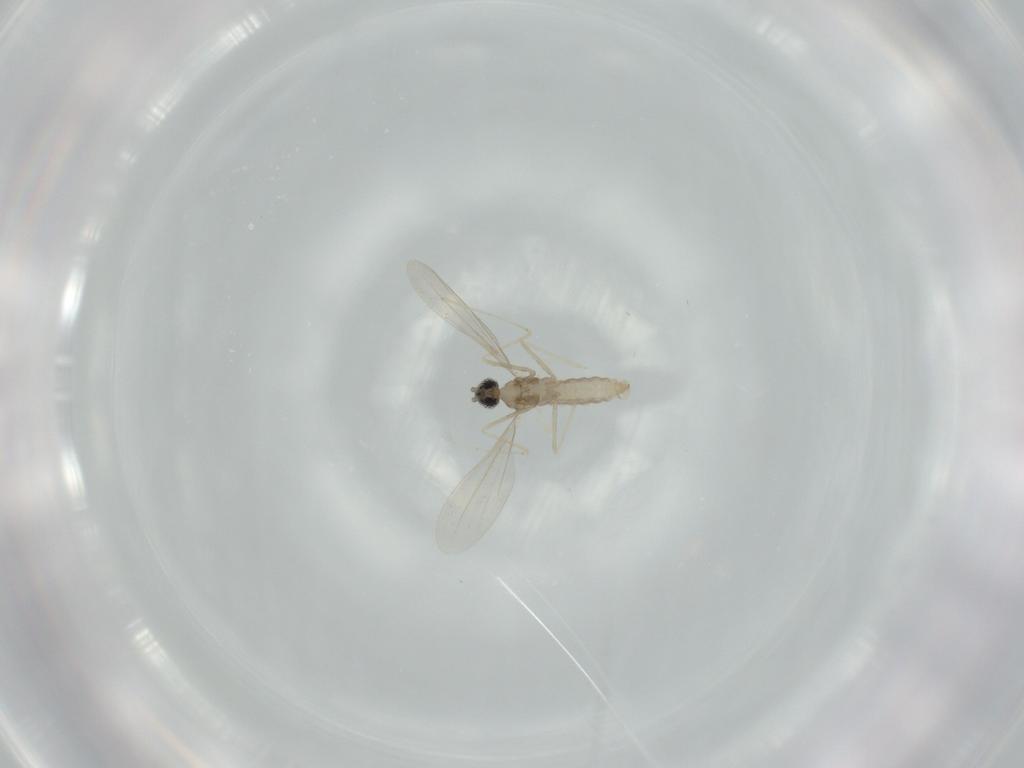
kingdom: Animalia
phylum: Arthropoda
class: Insecta
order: Diptera
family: Cecidomyiidae
